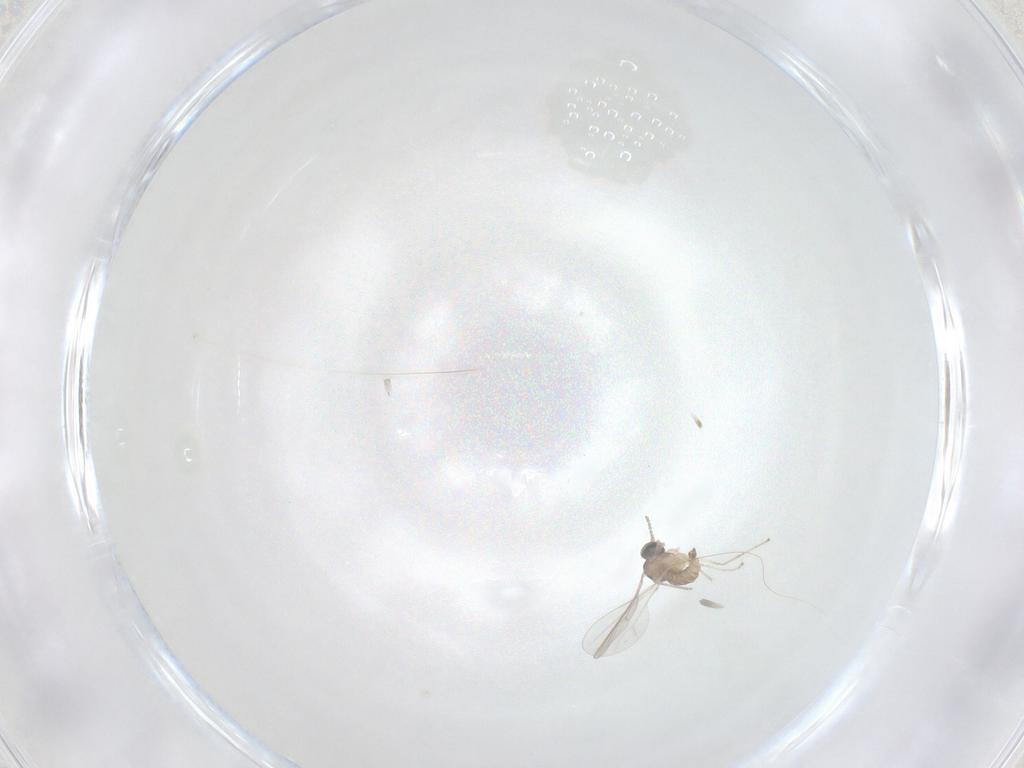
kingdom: Animalia
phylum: Arthropoda
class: Insecta
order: Diptera
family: Cecidomyiidae
